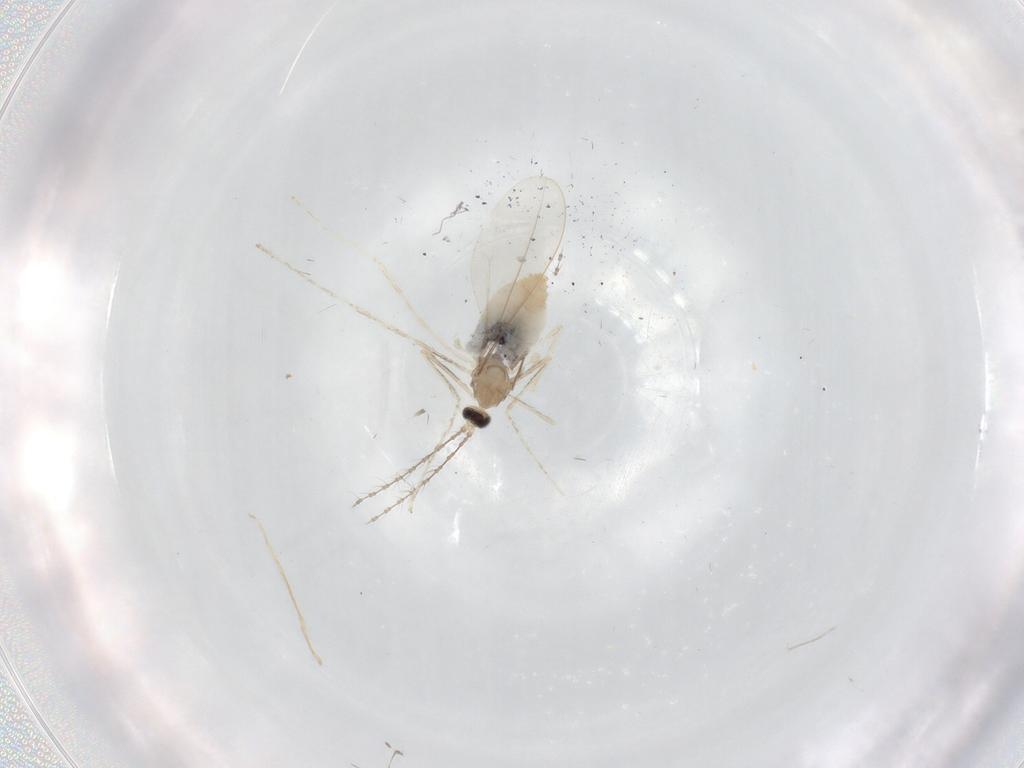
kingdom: Animalia
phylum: Arthropoda
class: Insecta
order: Diptera
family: Cecidomyiidae
